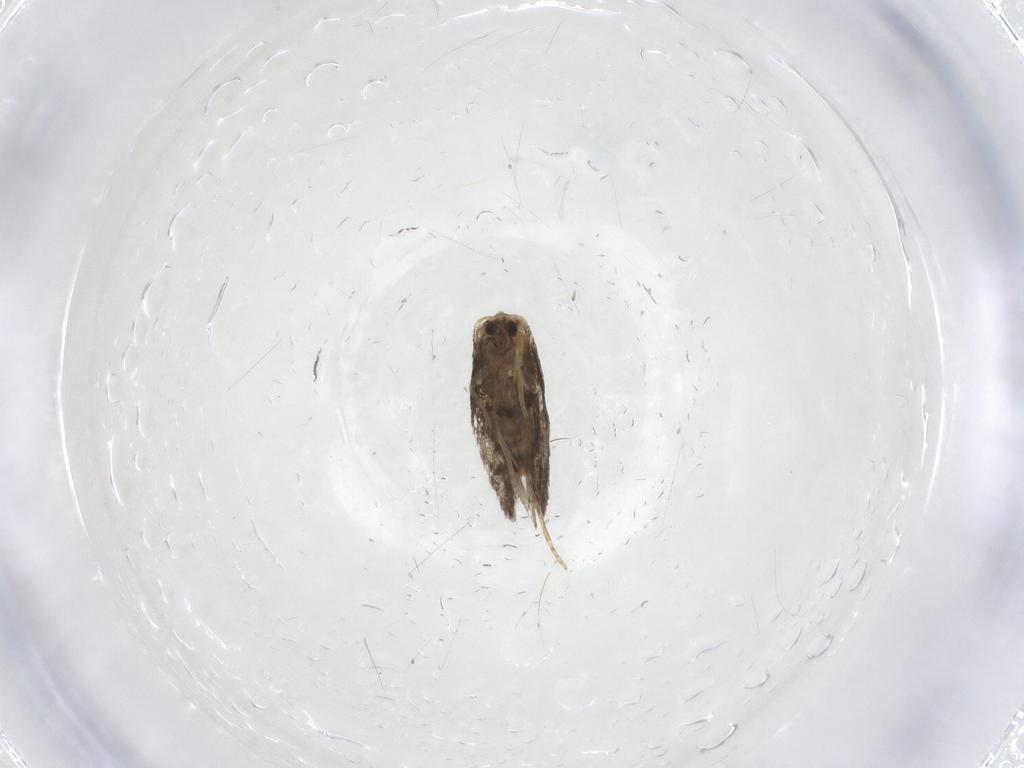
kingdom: Animalia
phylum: Arthropoda
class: Insecta
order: Lepidoptera
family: Nepticulidae
